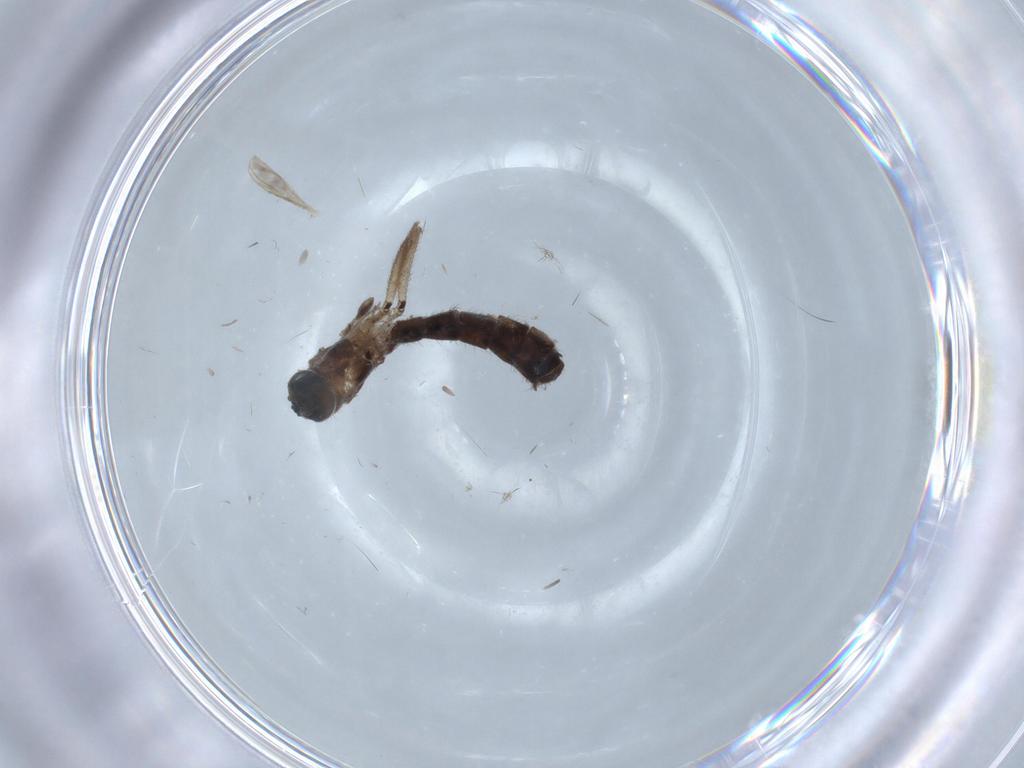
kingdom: Animalia
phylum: Arthropoda
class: Insecta
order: Diptera
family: Chironomidae
